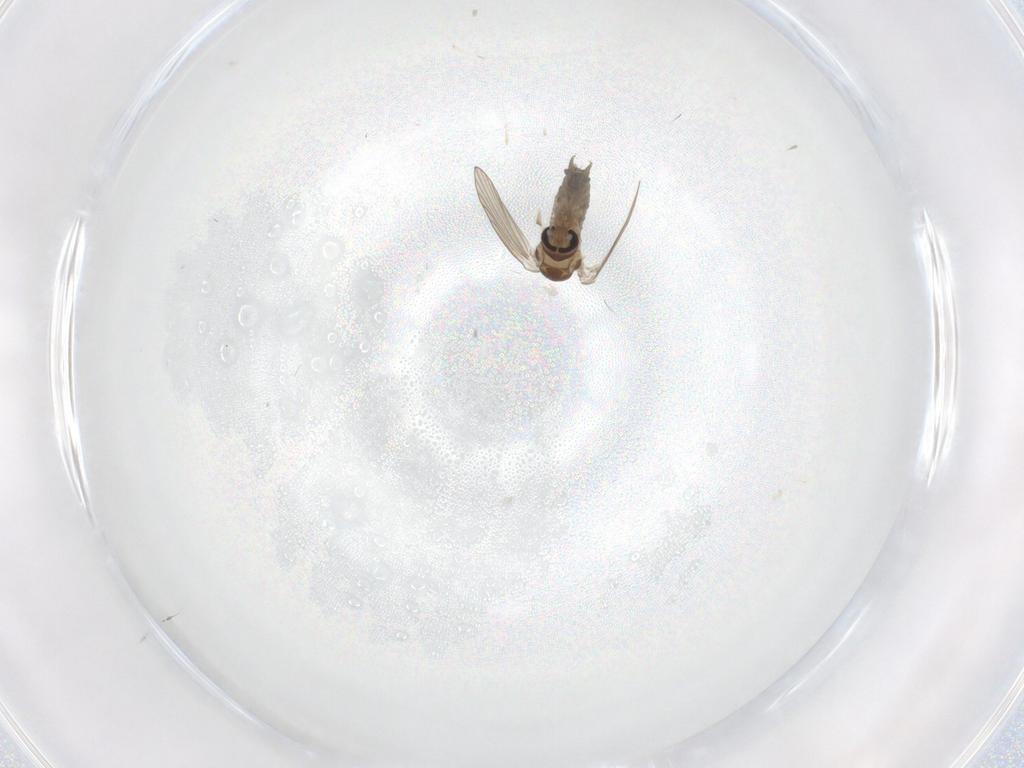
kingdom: Animalia
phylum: Arthropoda
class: Insecta
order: Diptera
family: Psychodidae
